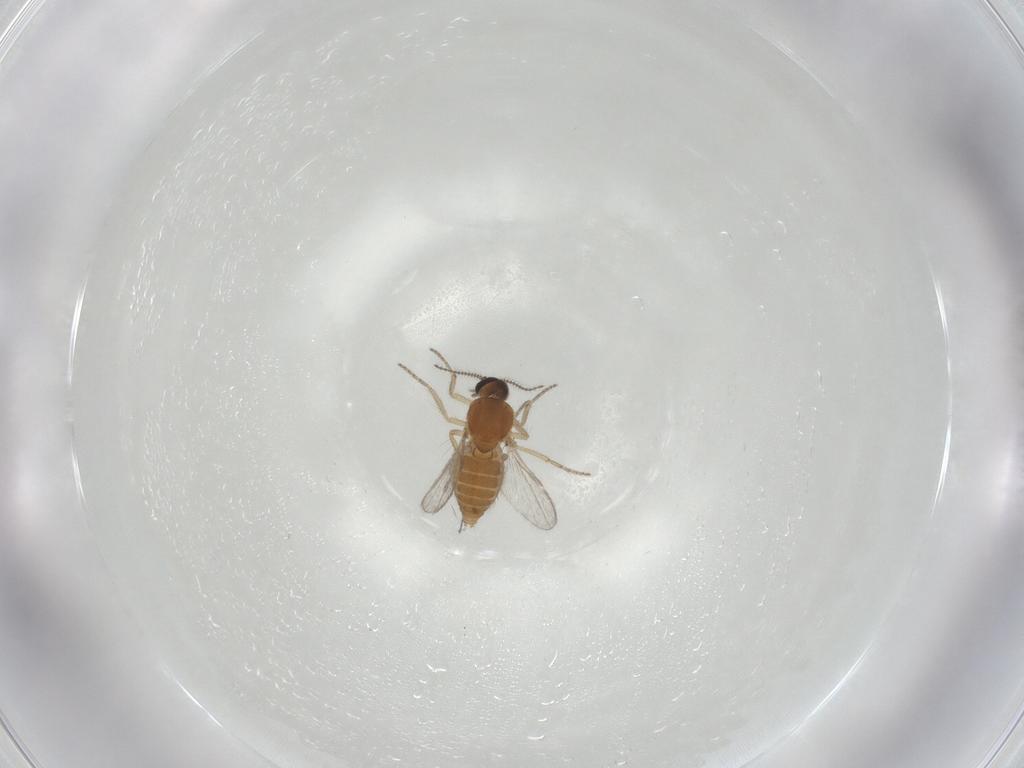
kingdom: Animalia
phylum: Arthropoda
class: Insecta
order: Diptera
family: Ceratopogonidae
